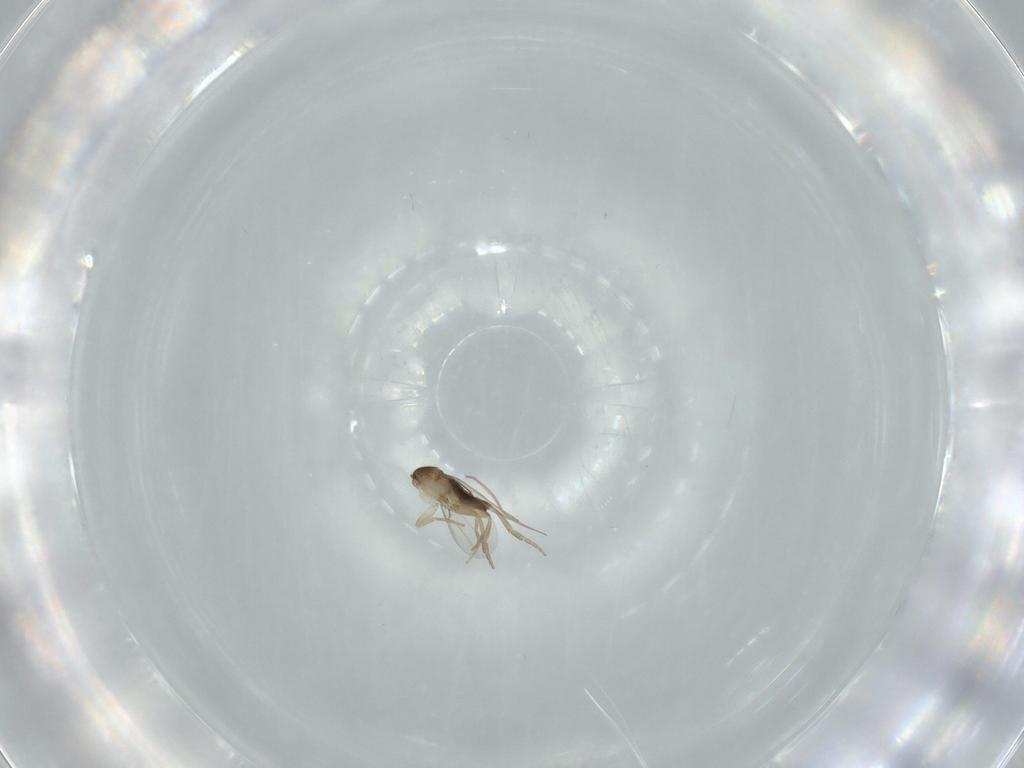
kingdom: Animalia
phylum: Arthropoda
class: Insecta
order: Diptera
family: Phoridae
